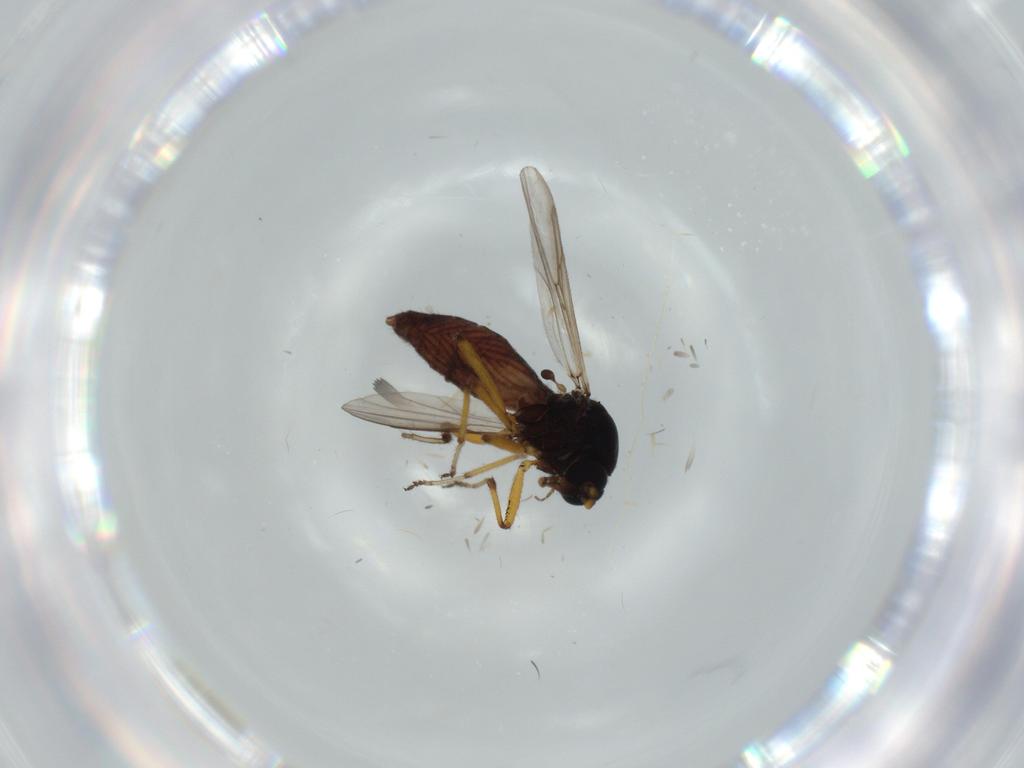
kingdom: Animalia
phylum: Arthropoda
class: Insecta
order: Diptera
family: Ceratopogonidae
